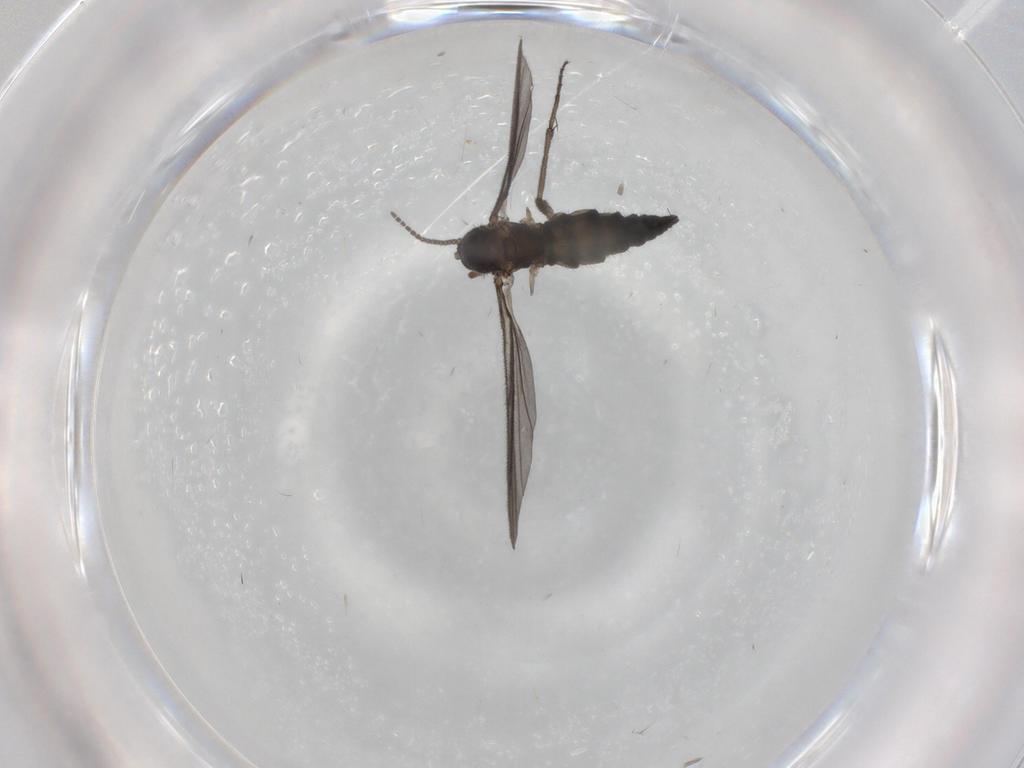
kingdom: Animalia
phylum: Arthropoda
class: Insecta
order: Diptera
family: Sciaridae
